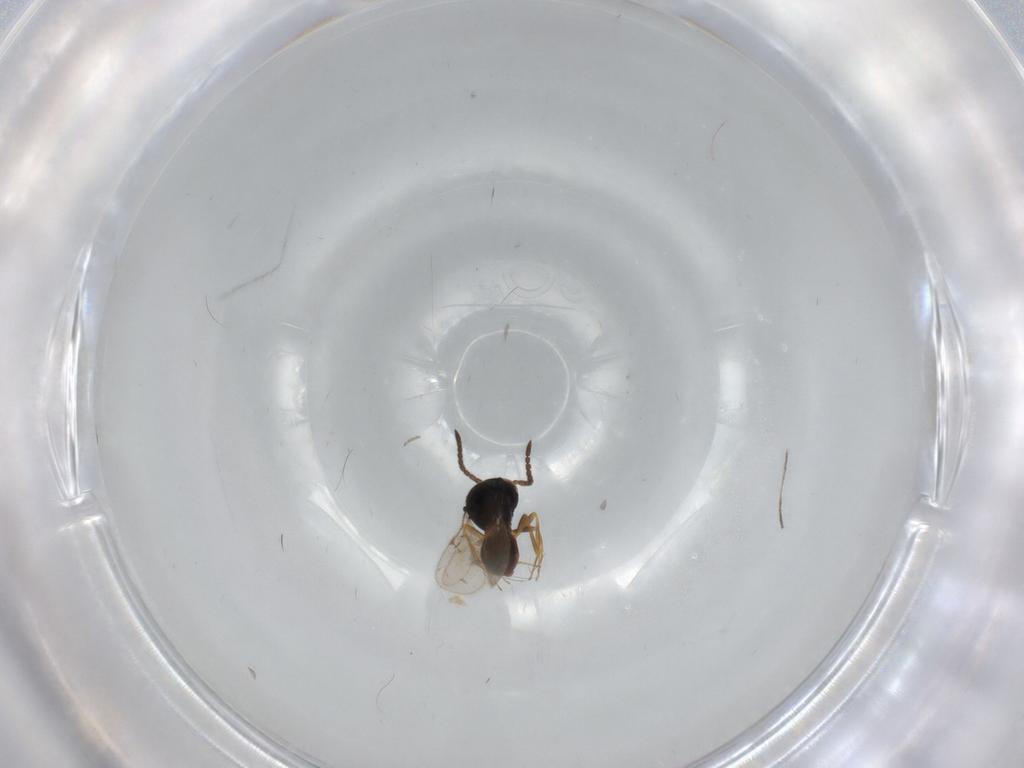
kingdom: Animalia
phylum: Arthropoda
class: Insecta
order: Hymenoptera
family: Scelionidae
